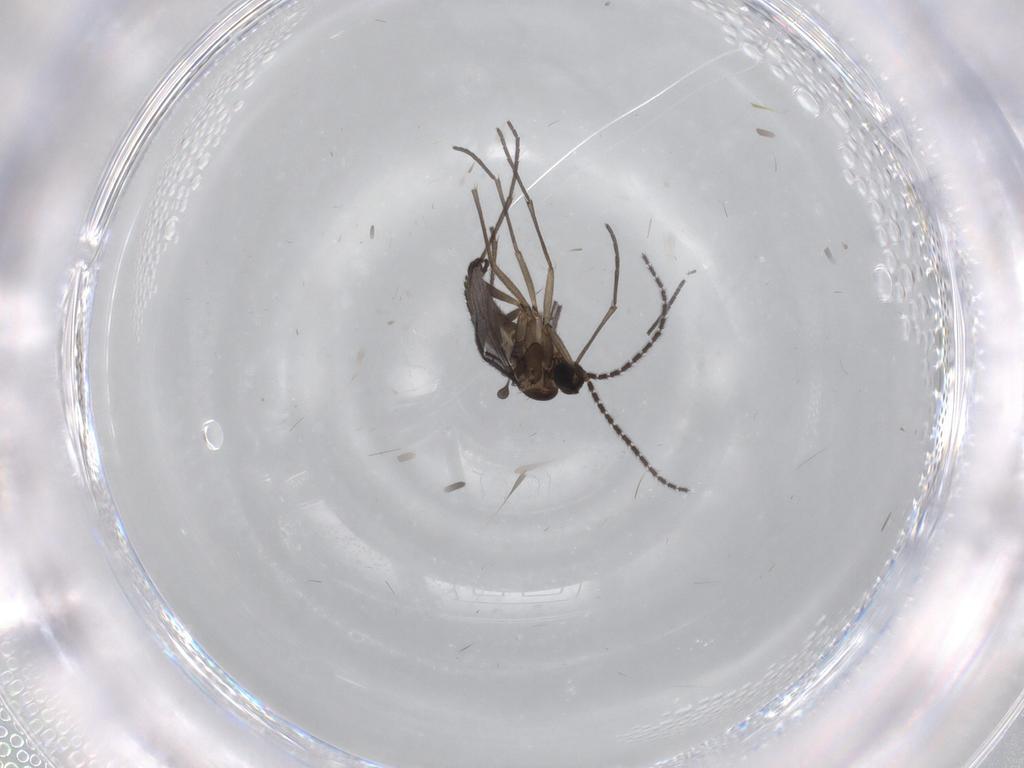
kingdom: Animalia
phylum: Arthropoda
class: Insecta
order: Diptera
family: Sciaridae
